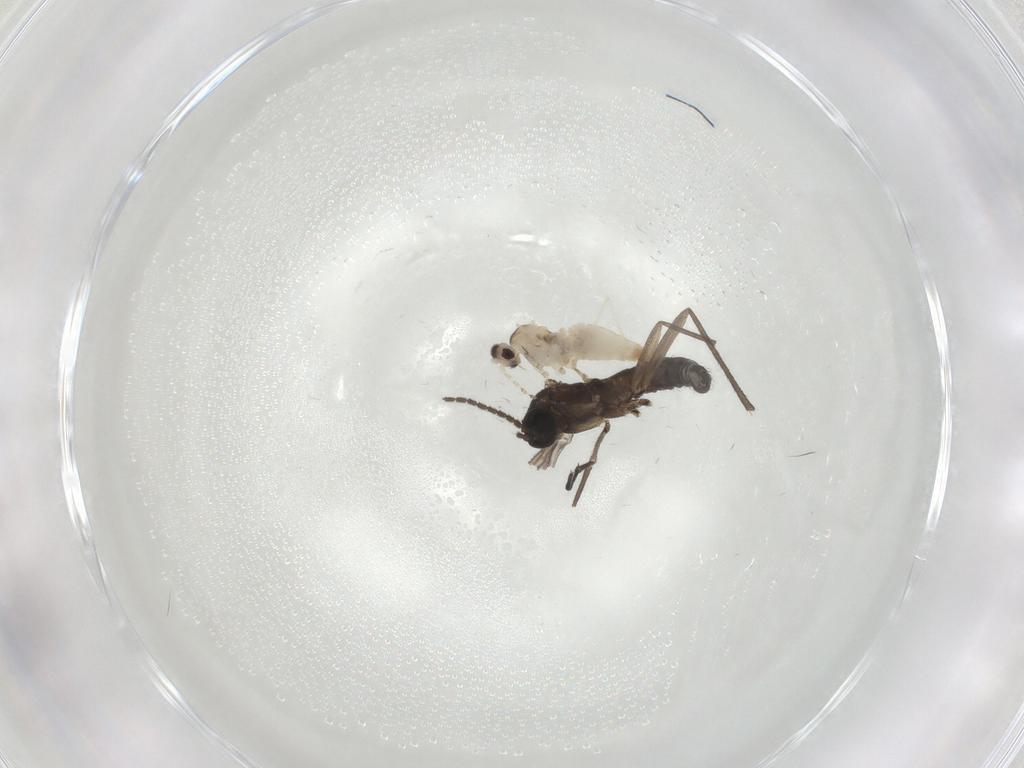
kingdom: Animalia
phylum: Arthropoda
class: Insecta
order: Diptera
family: Cecidomyiidae
